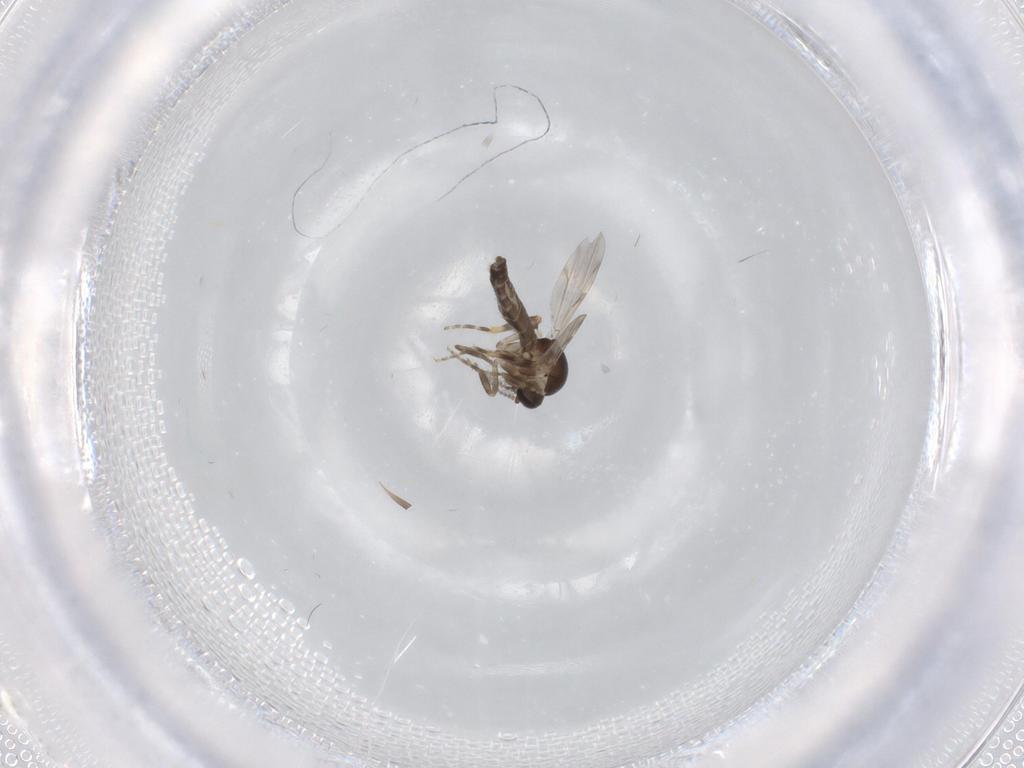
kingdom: Animalia
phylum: Arthropoda
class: Insecta
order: Diptera
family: Ceratopogonidae
